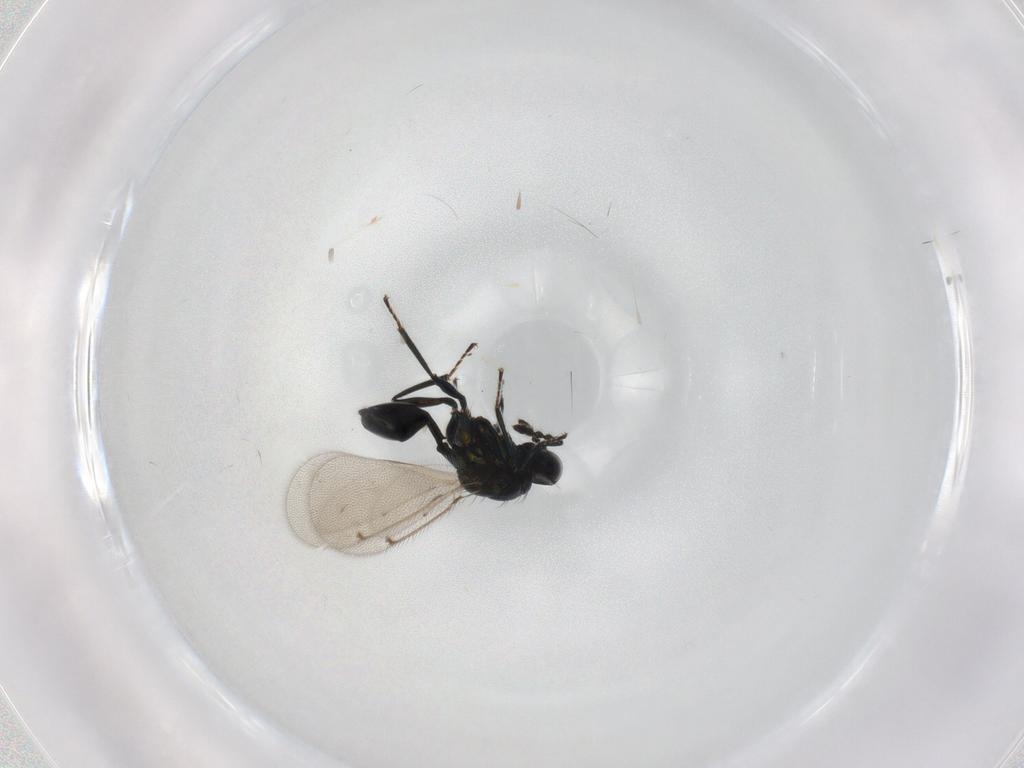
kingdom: Animalia
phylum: Arthropoda
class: Insecta
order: Hymenoptera
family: Eulophidae
